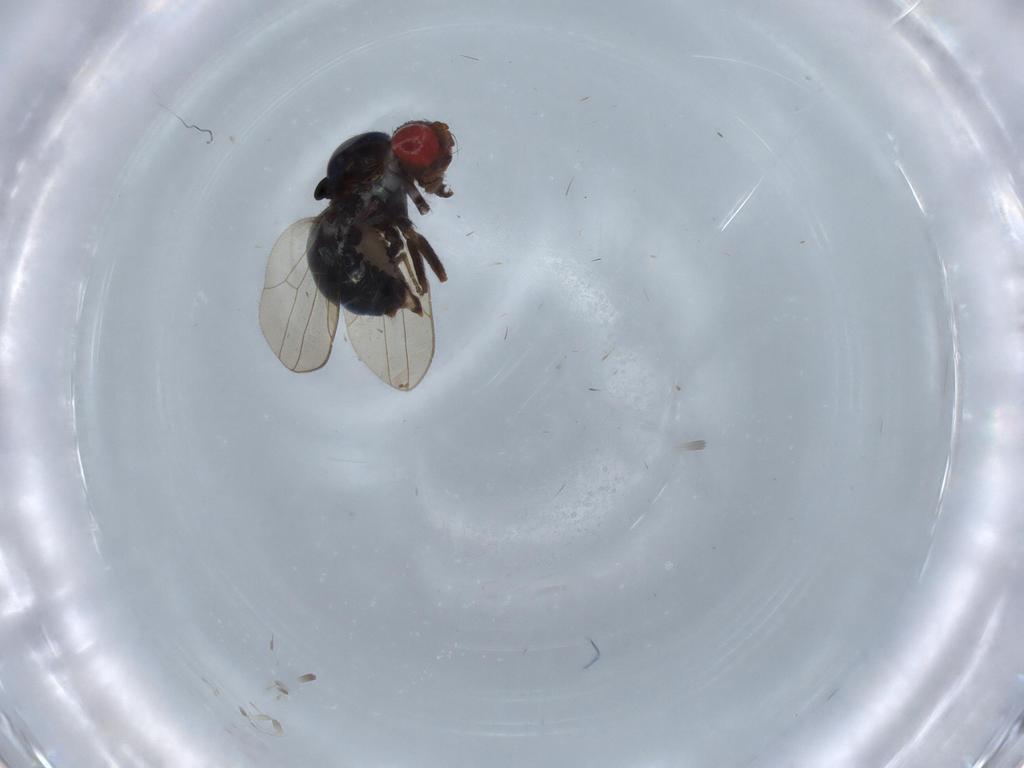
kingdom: Animalia
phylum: Arthropoda
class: Insecta
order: Diptera
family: Drosophilidae
